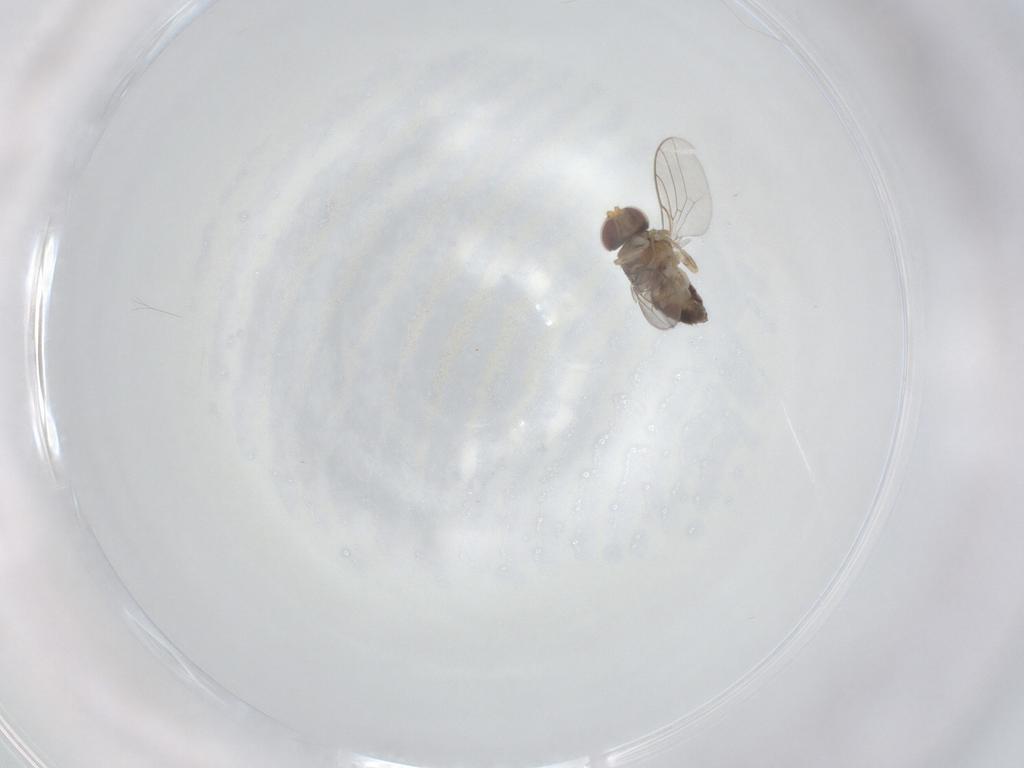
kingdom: Animalia
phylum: Arthropoda
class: Insecta
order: Diptera
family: Chloropidae
